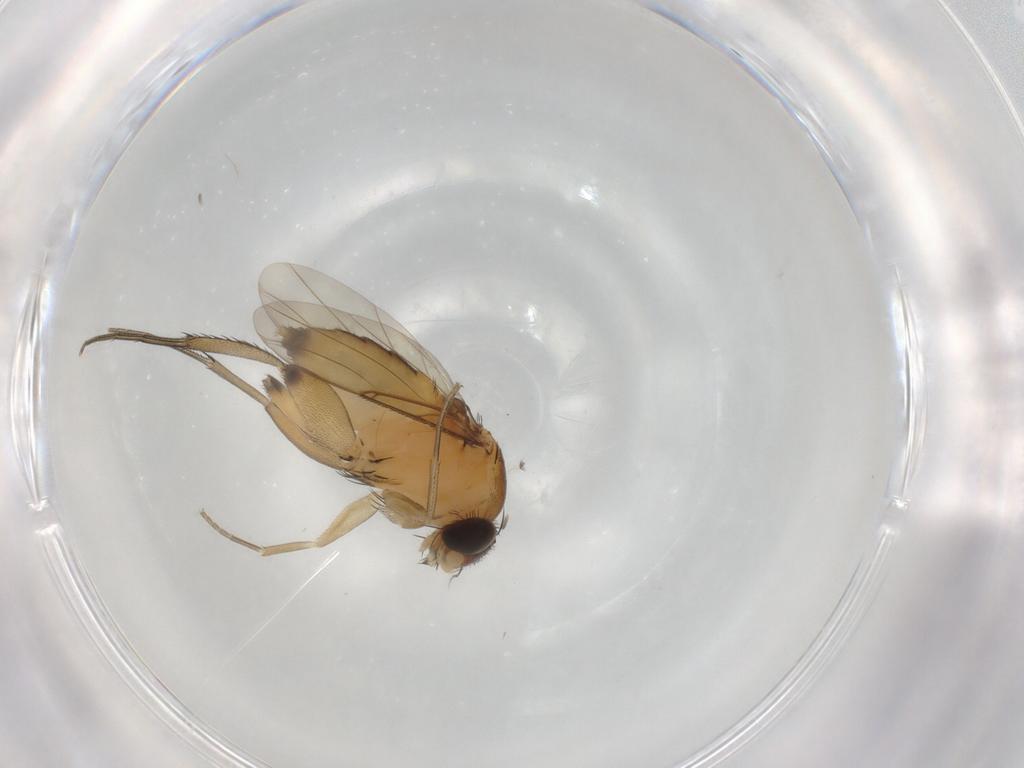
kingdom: Animalia
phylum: Arthropoda
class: Insecta
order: Diptera
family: Phoridae
